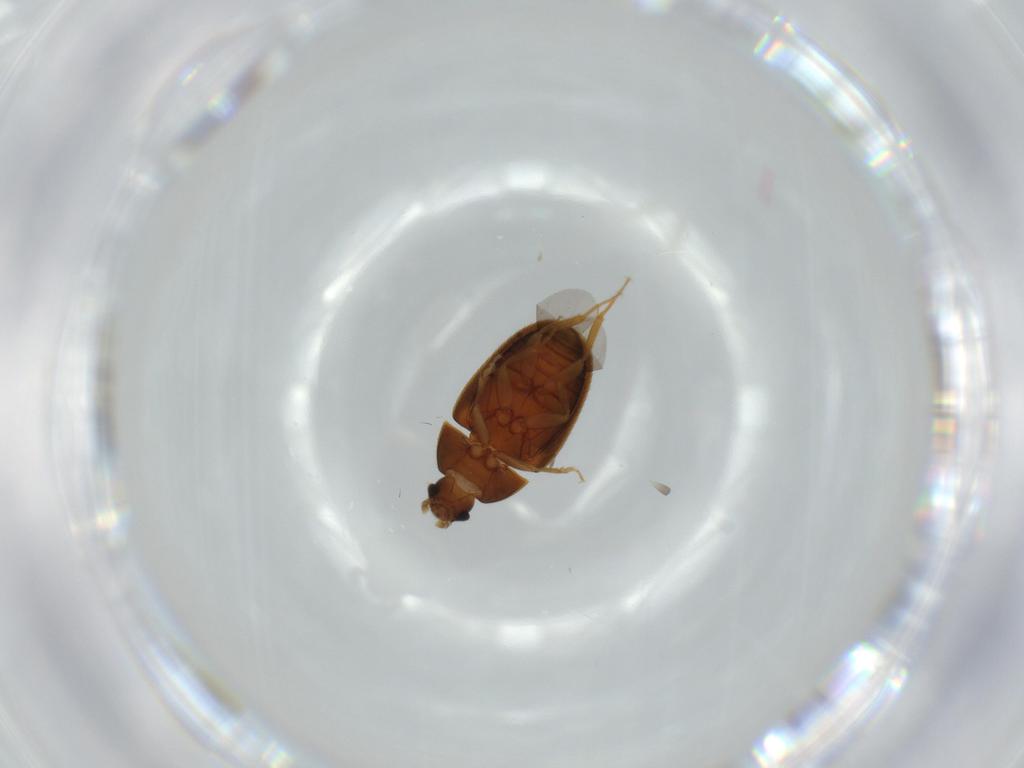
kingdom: Animalia
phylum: Arthropoda
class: Insecta
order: Coleoptera
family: Mycetophagidae
